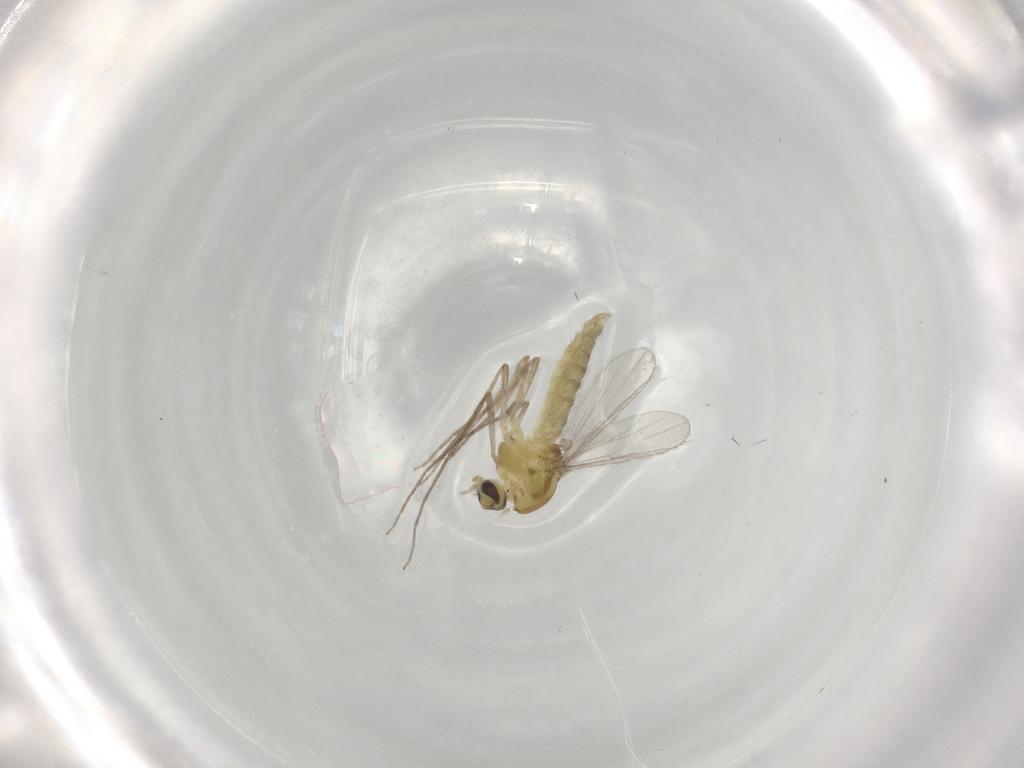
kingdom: Animalia
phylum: Arthropoda
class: Insecta
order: Diptera
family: Chironomidae
